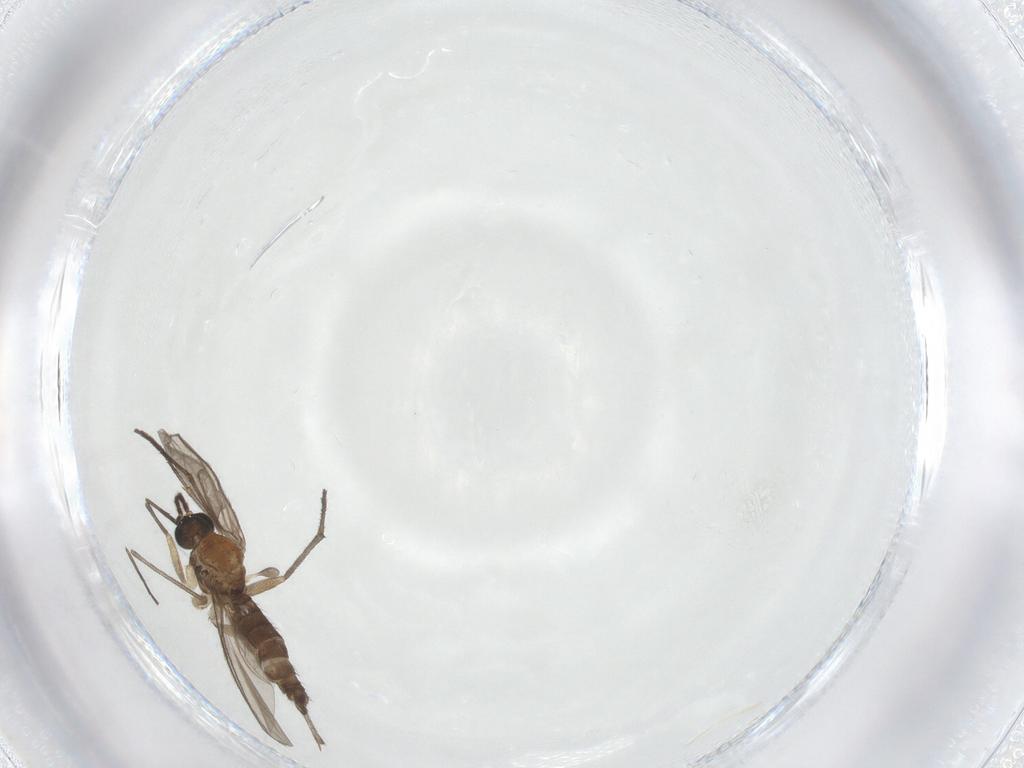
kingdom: Animalia
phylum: Arthropoda
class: Insecta
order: Diptera
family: Sciaridae
